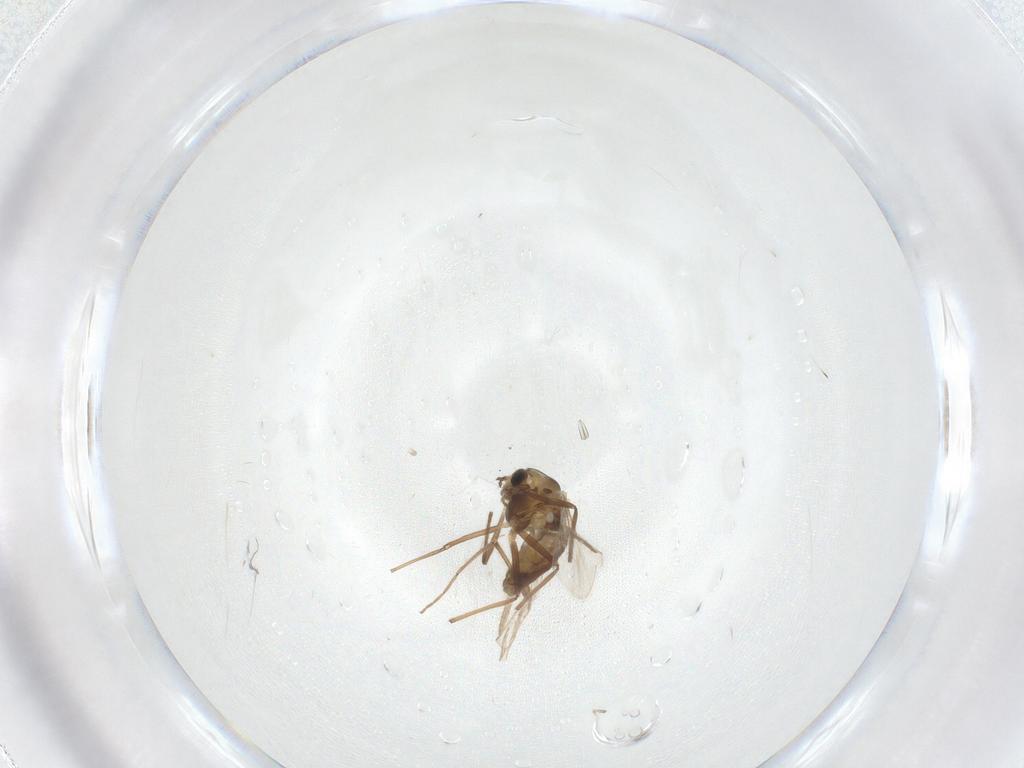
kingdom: Animalia
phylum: Arthropoda
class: Insecta
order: Diptera
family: Chironomidae
